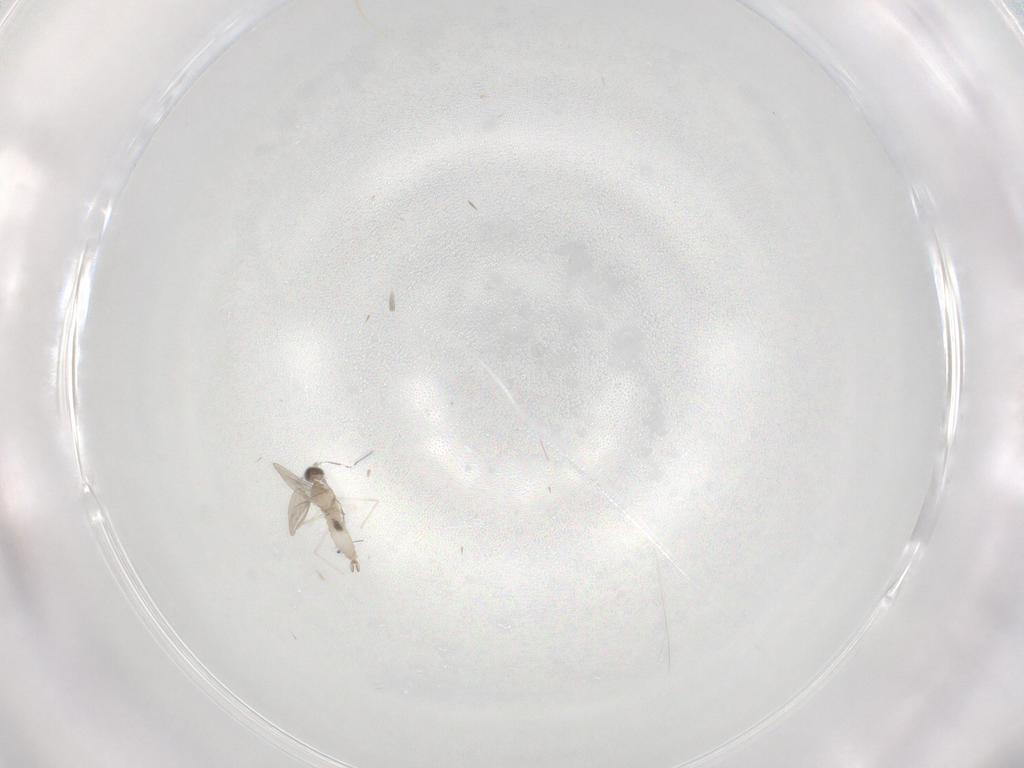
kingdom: Animalia
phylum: Arthropoda
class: Insecta
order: Diptera
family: Cecidomyiidae
